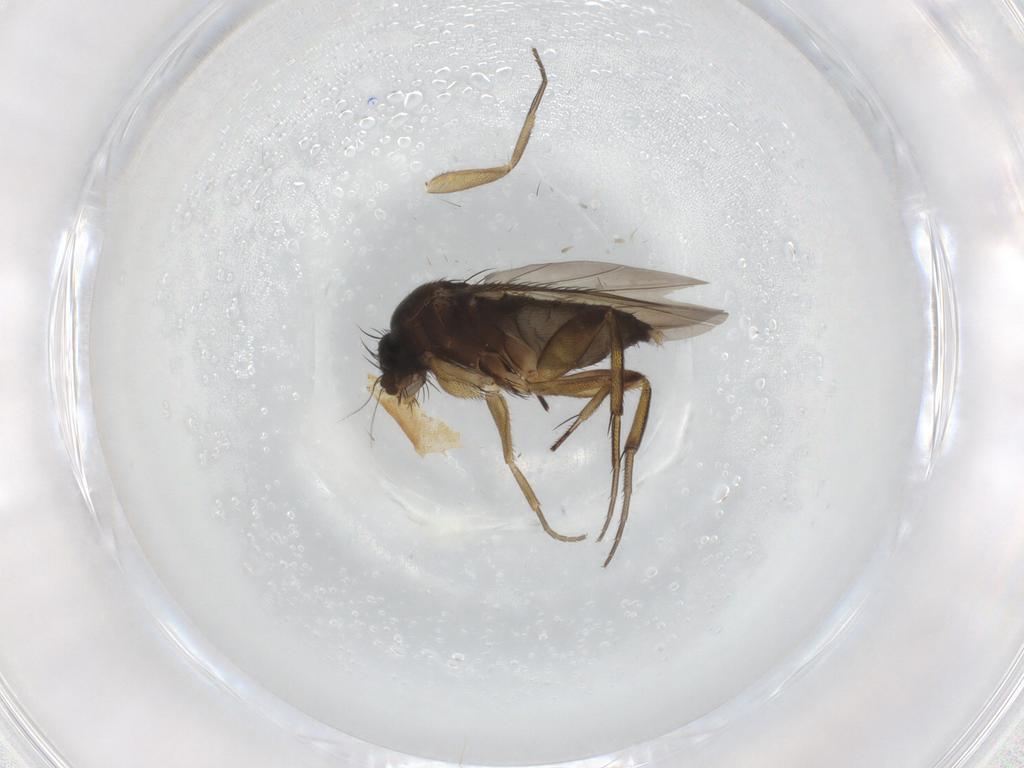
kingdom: Animalia
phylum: Arthropoda
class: Insecta
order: Diptera
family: Phoridae
